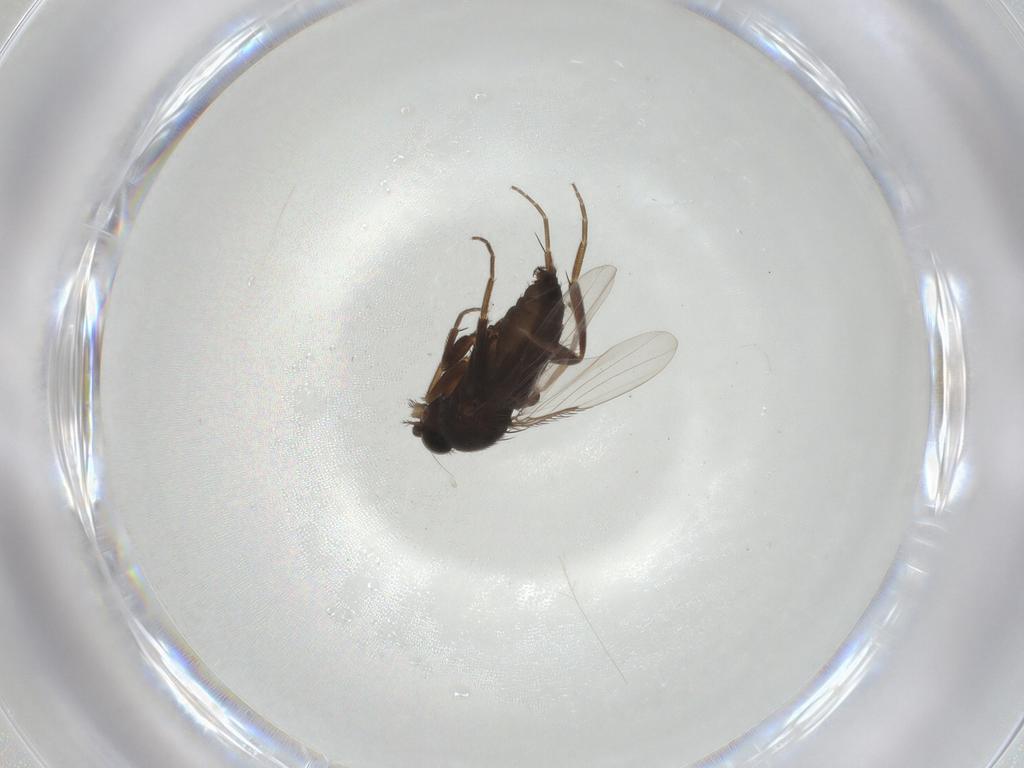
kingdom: Animalia
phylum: Arthropoda
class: Insecta
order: Diptera
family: Phoridae
